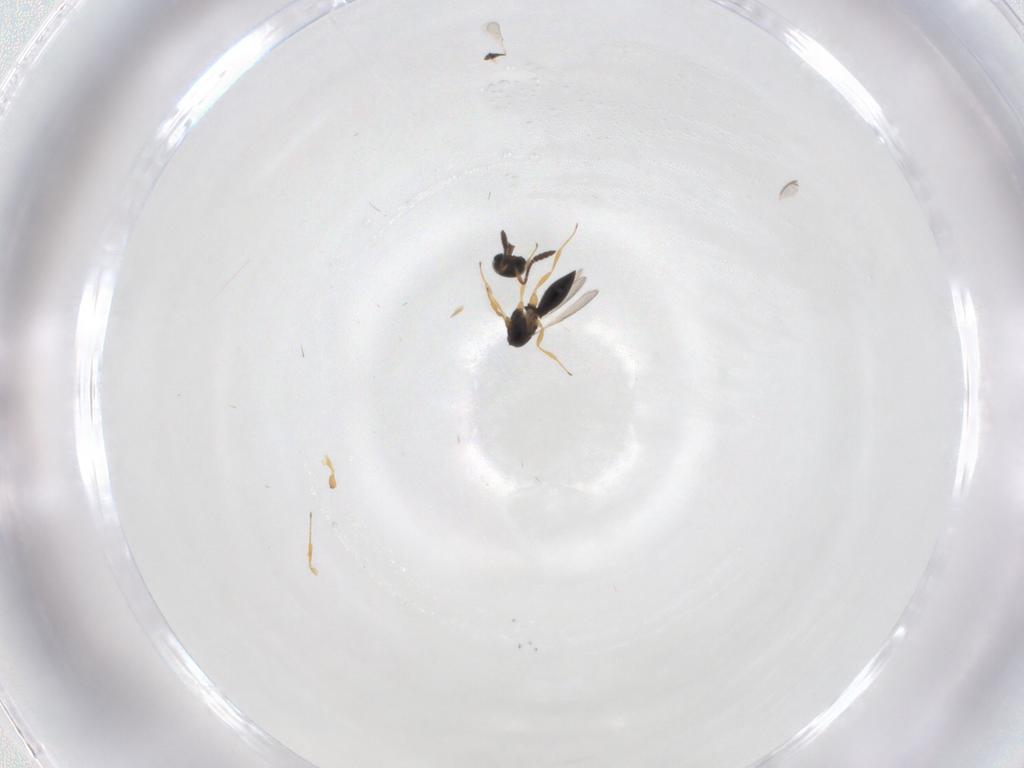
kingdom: Animalia
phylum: Arthropoda
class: Insecta
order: Hymenoptera
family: Scelionidae
